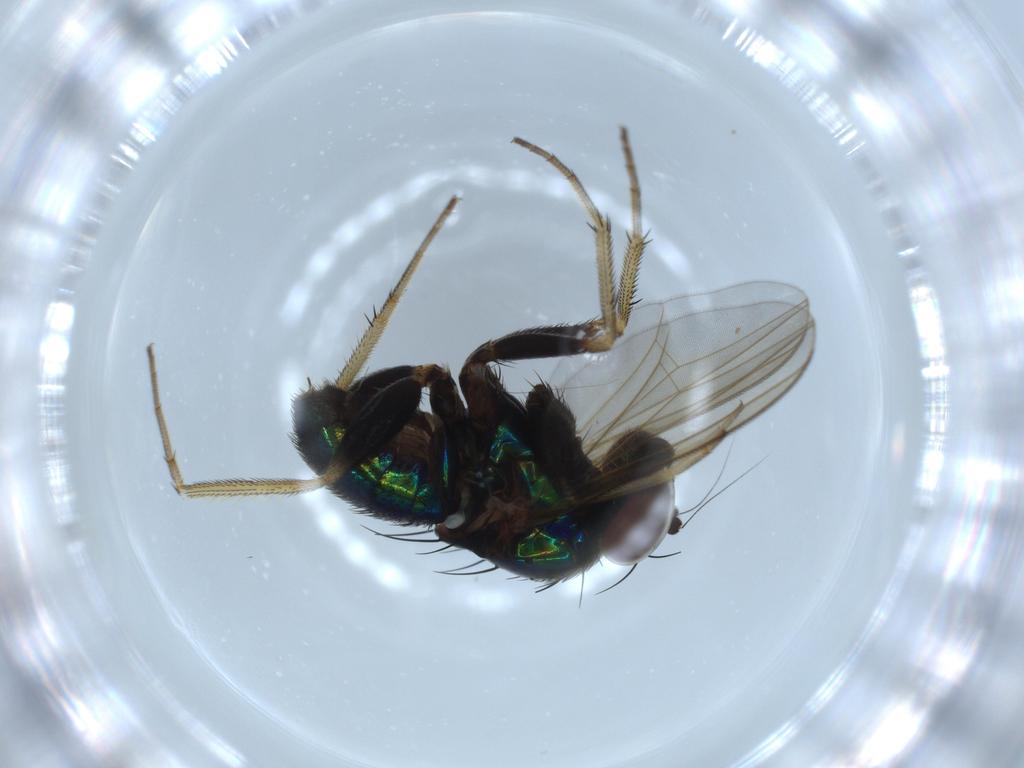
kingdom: Animalia
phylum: Arthropoda
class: Insecta
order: Diptera
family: Dolichopodidae
